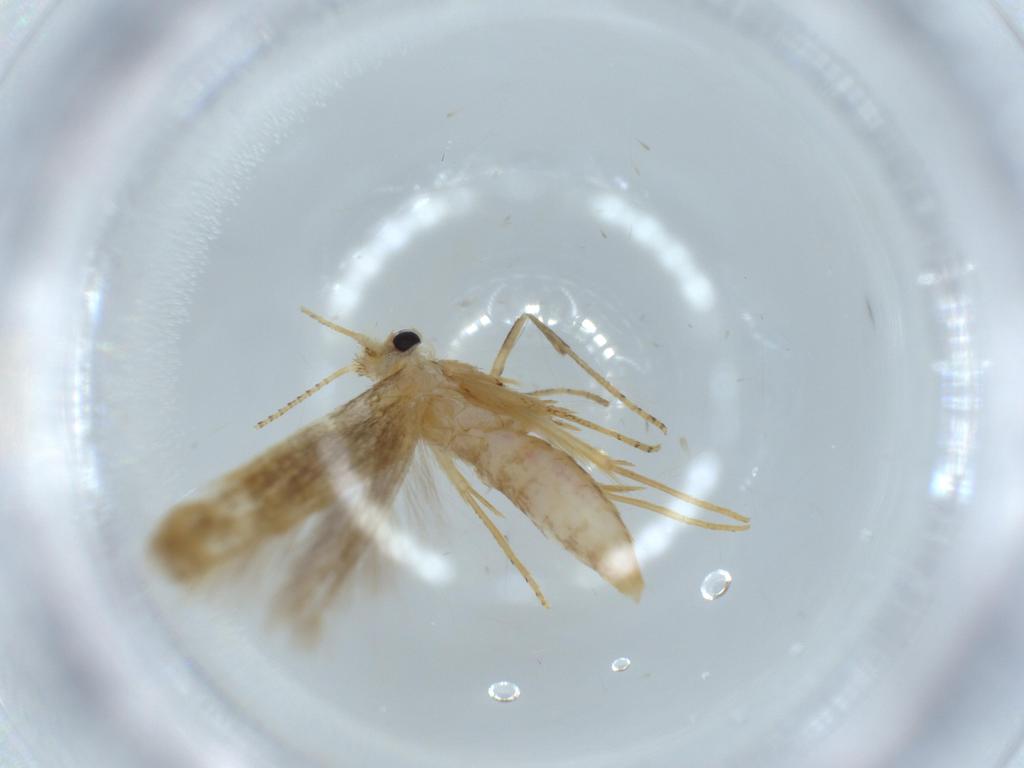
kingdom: Animalia
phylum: Arthropoda
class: Insecta
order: Lepidoptera
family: Bedelliidae
